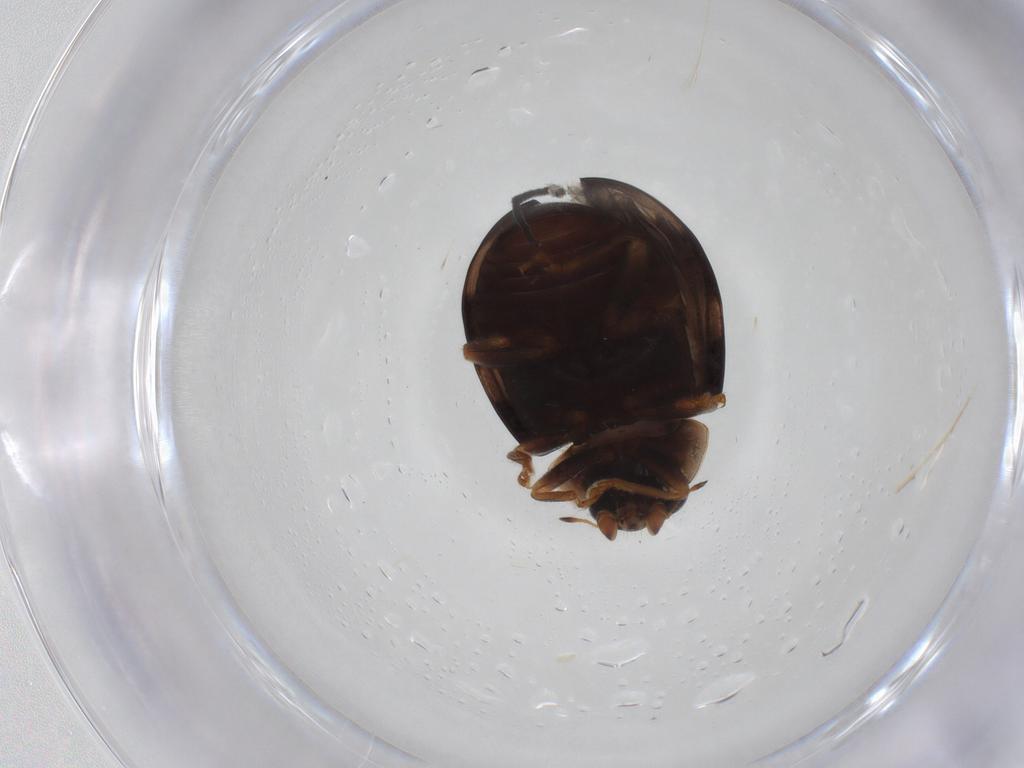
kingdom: Animalia
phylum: Arthropoda
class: Insecta
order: Coleoptera
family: Coccinellidae
